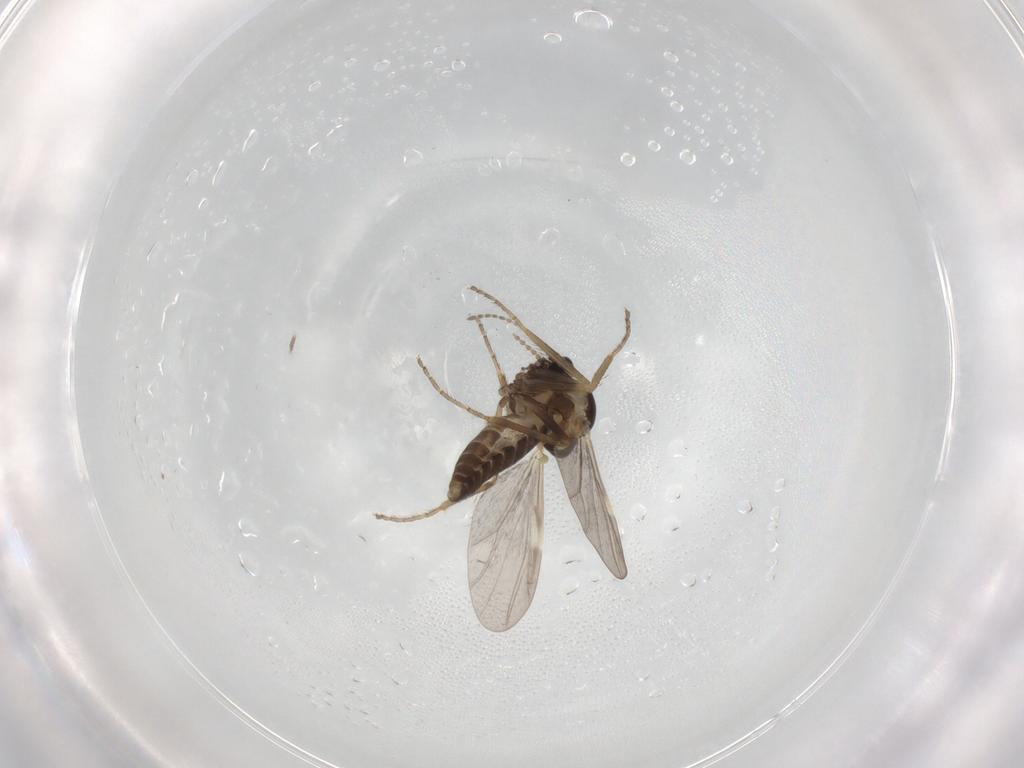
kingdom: Animalia
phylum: Arthropoda
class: Insecta
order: Diptera
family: Ceratopogonidae
